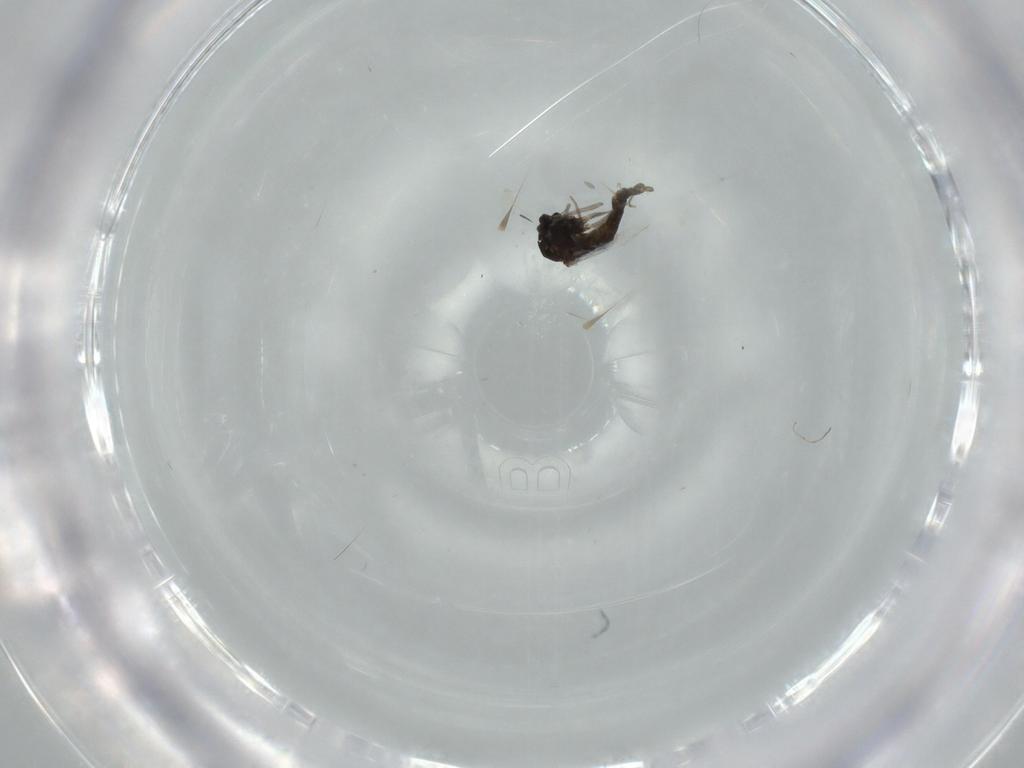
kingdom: Animalia
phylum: Arthropoda
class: Insecta
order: Diptera
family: Chironomidae
